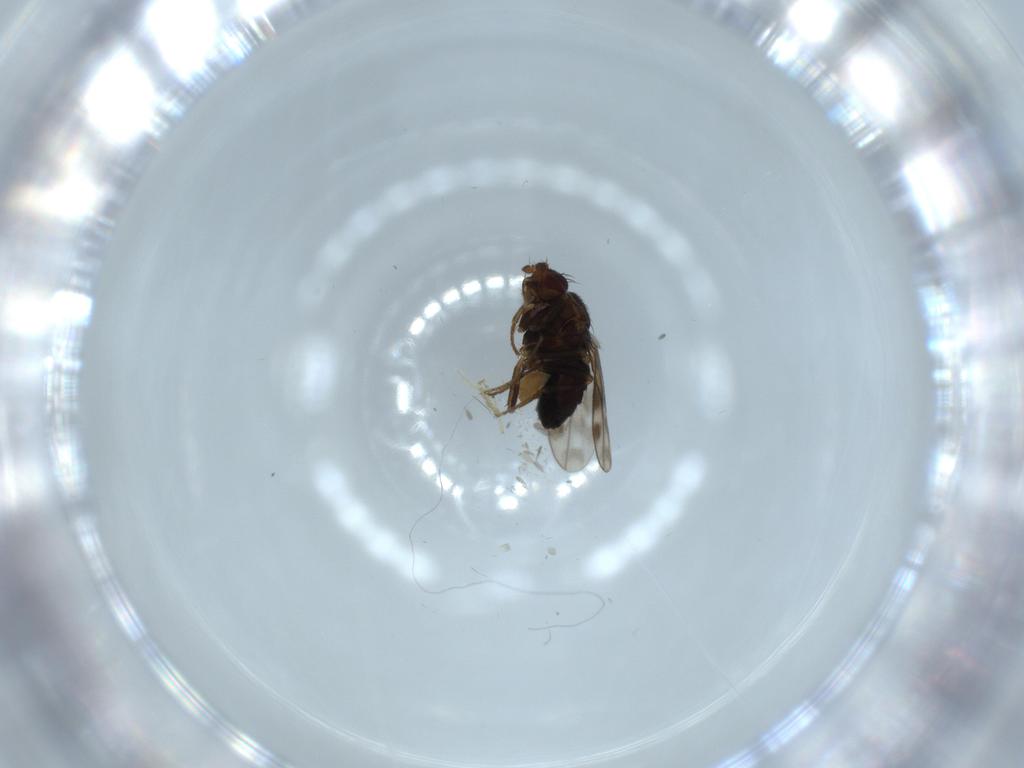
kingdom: Animalia
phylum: Arthropoda
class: Insecta
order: Diptera
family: Sphaeroceridae
